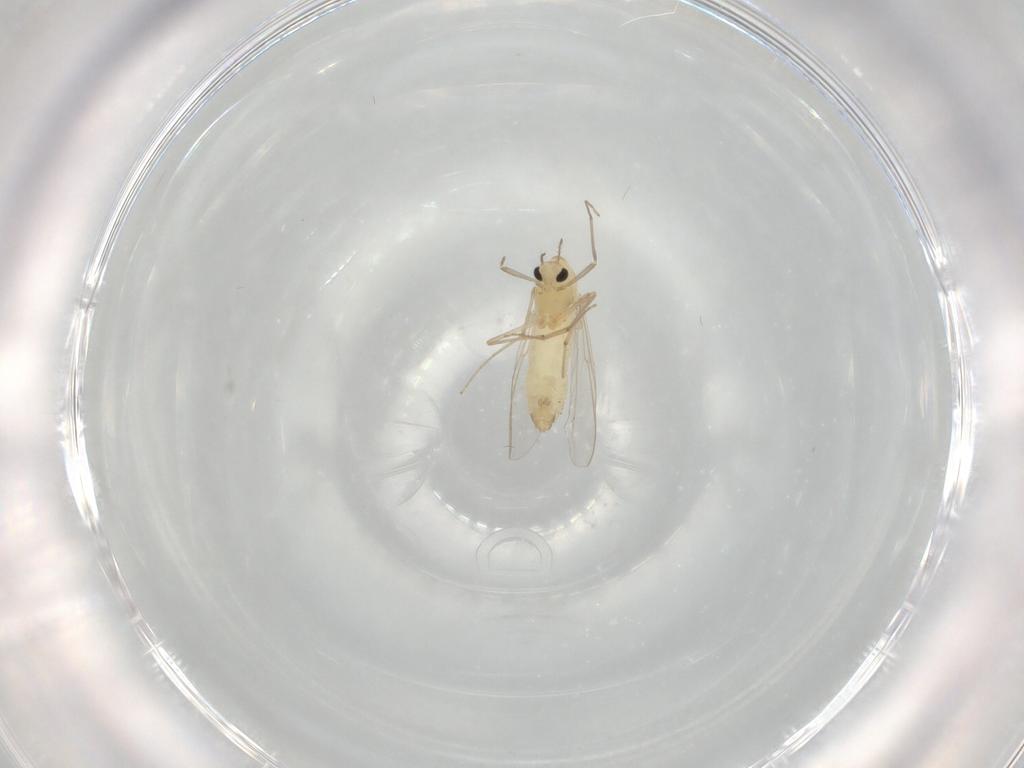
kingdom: Animalia
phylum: Arthropoda
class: Insecta
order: Diptera
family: Chironomidae
